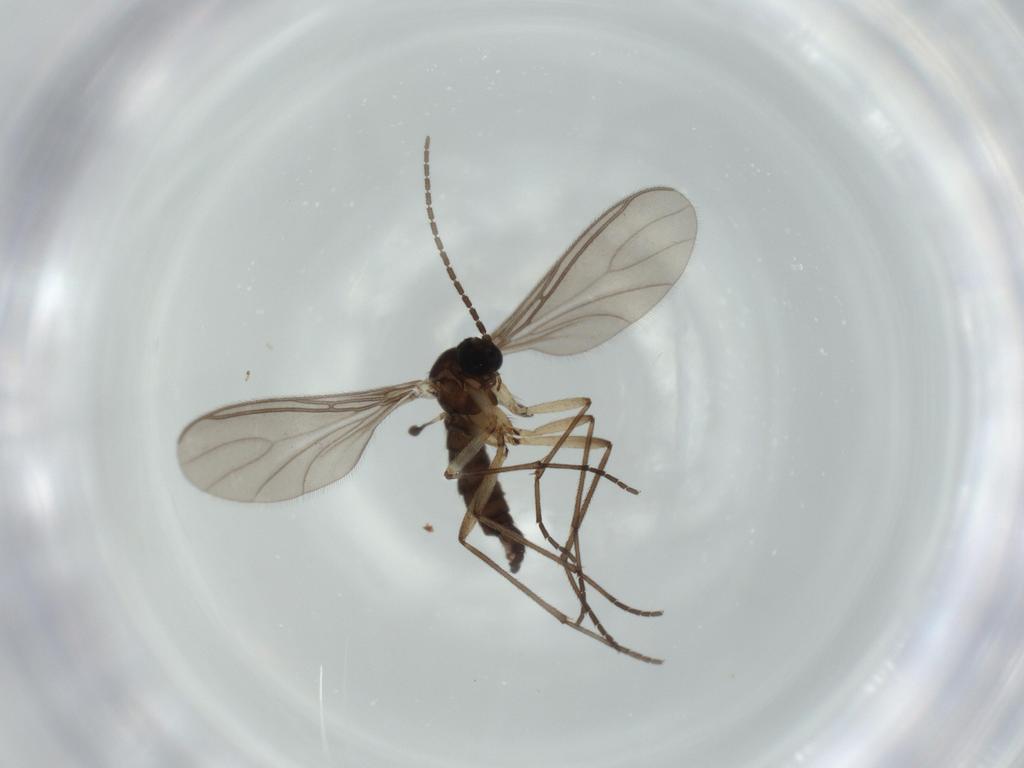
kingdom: Animalia
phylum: Arthropoda
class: Insecta
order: Diptera
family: Sciaridae
